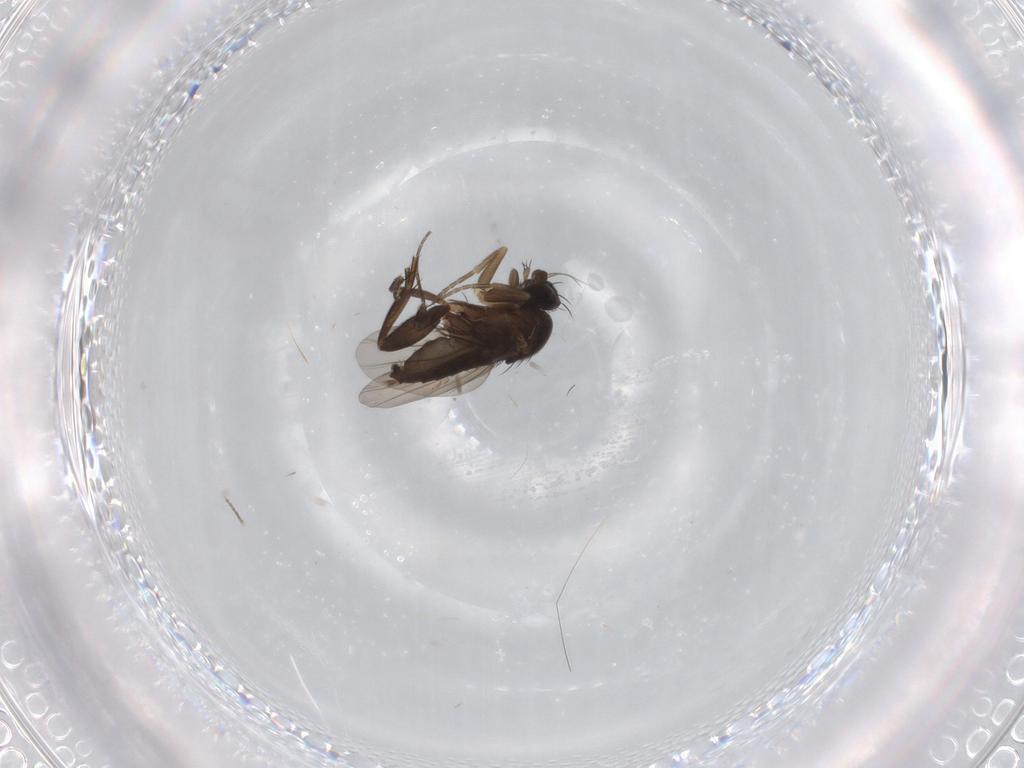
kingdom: Animalia
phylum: Arthropoda
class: Insecta
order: Diptera
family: Phoridae
